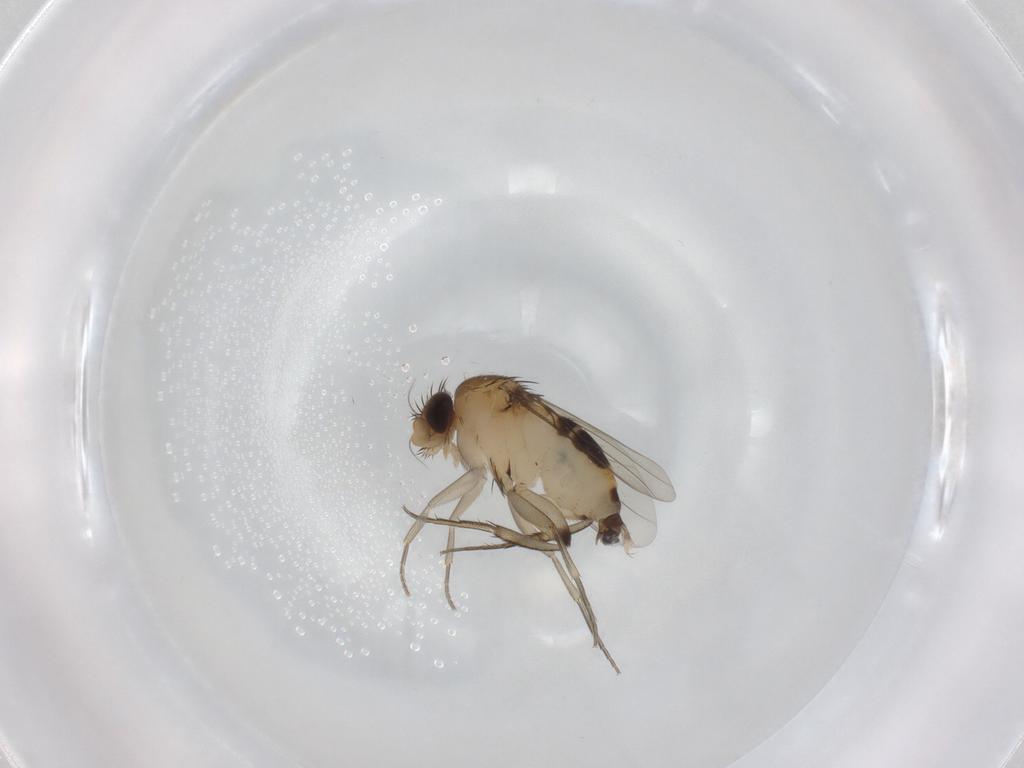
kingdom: Animalia
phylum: Arthropoda
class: Insecta
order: Diptera
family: Phoridae
